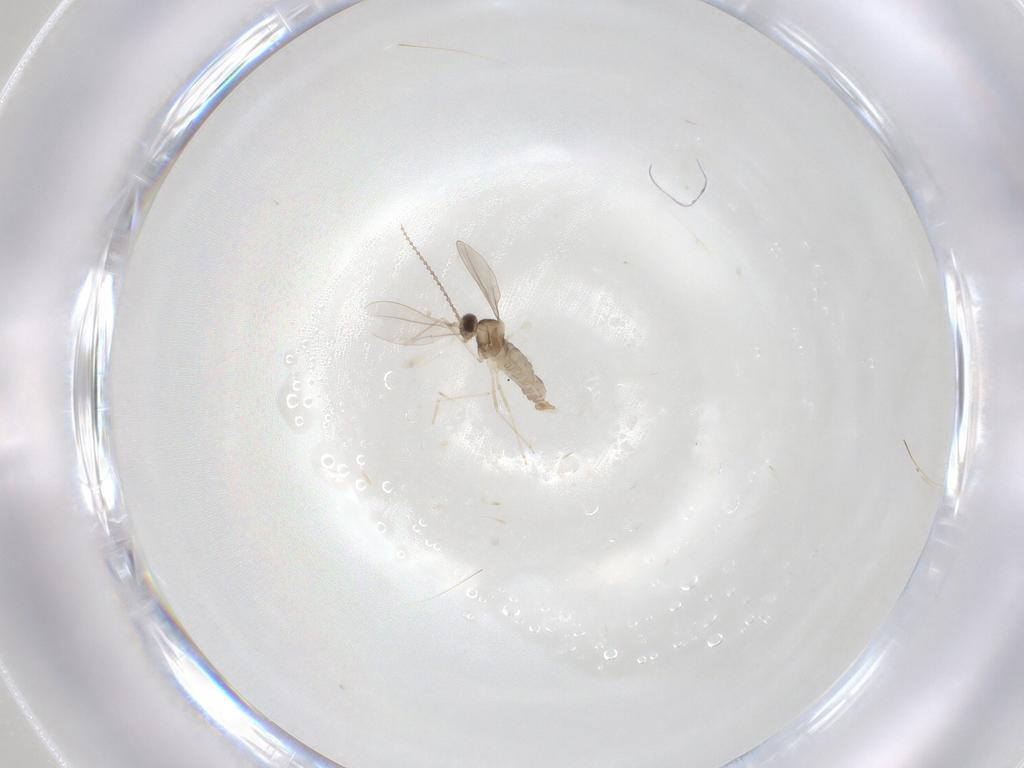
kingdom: Animalia
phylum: Arthropoda
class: Insecta
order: Diptera
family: Cecidomyiidae
